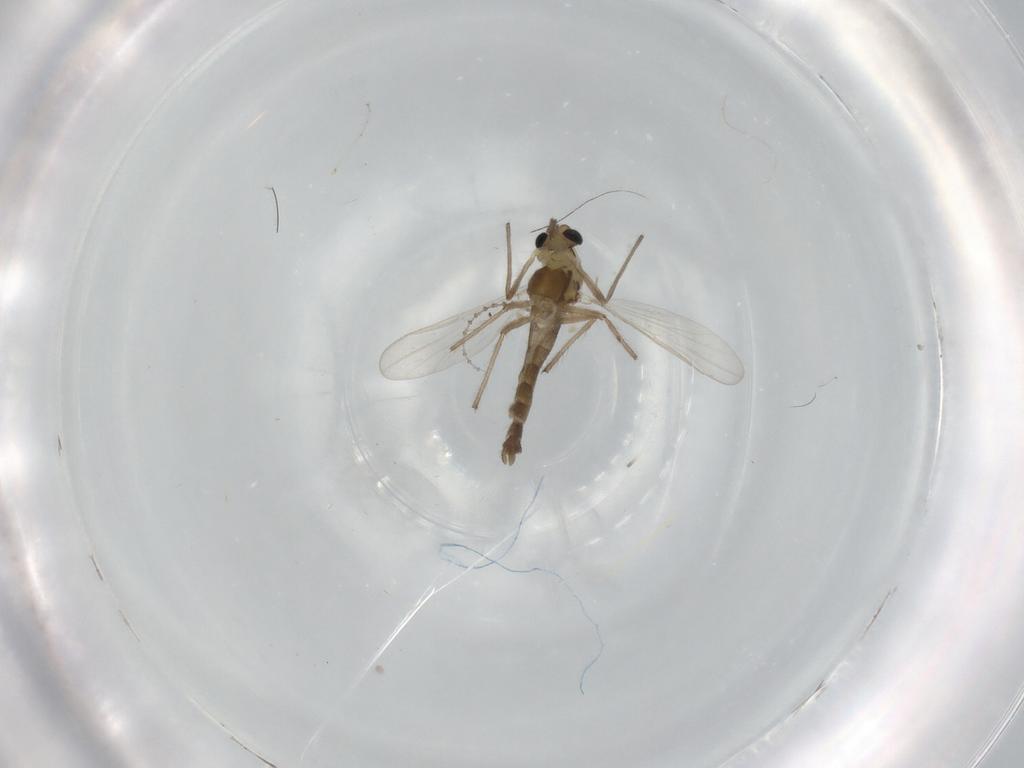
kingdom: Animalia
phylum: Arthropoda
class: Insecta
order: Diptera
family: Chironomidae
